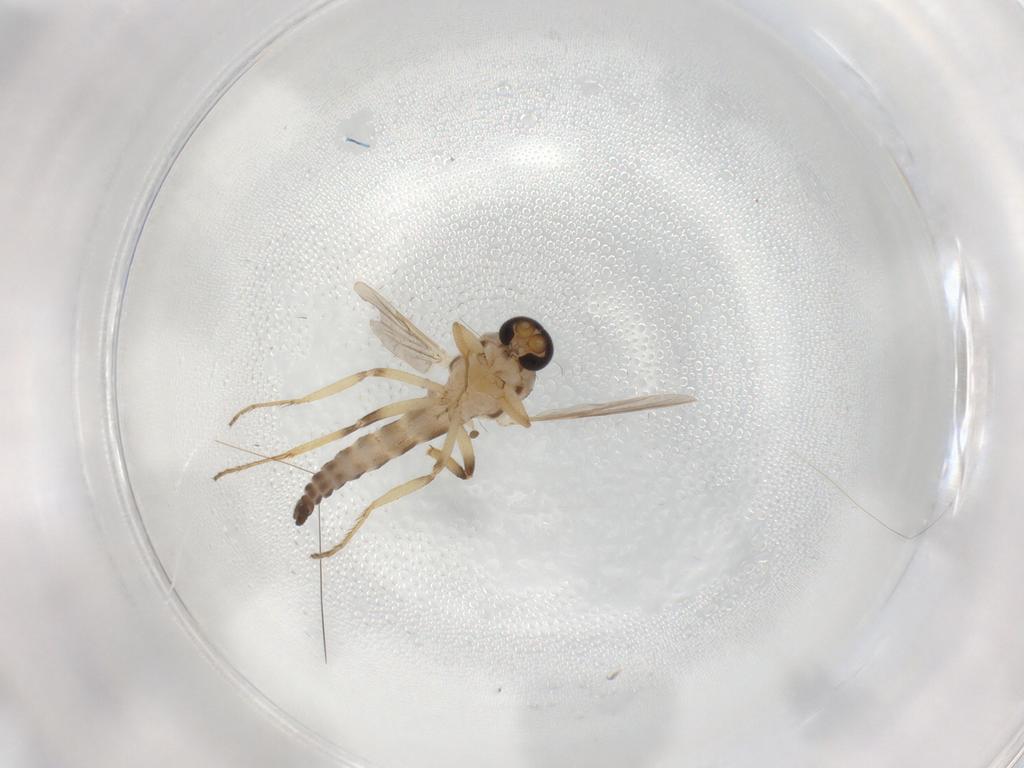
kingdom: Animalia
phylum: Arthropoda
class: Insecta
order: Diptera
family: Ceratopogonidae
